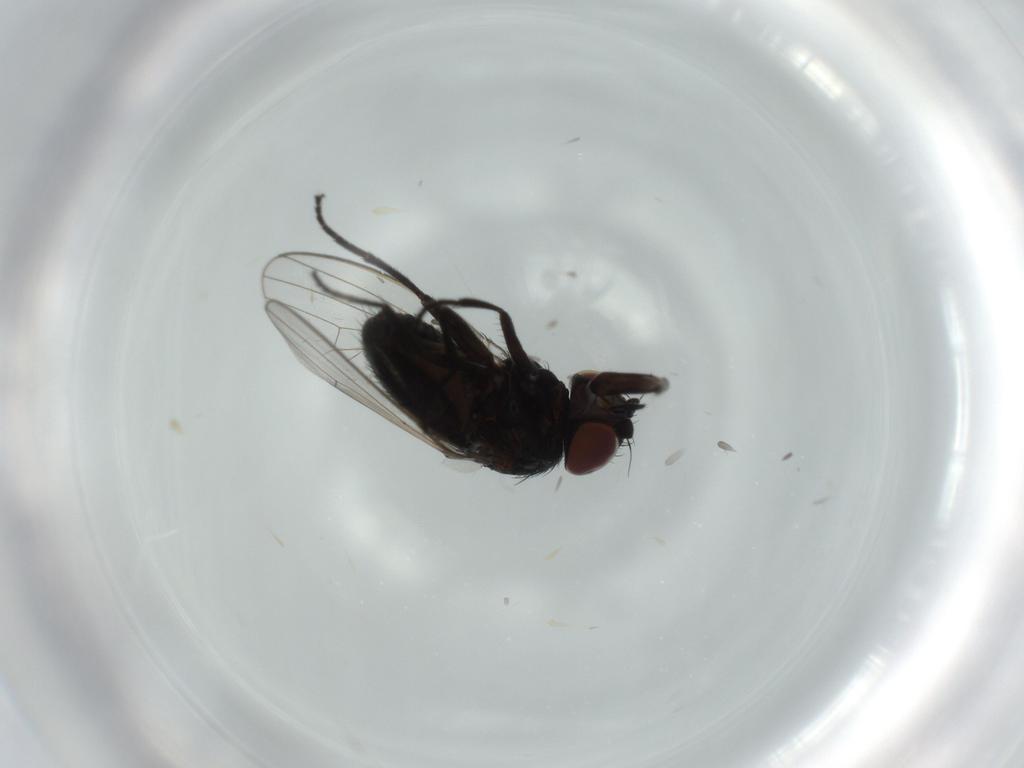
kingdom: Animalia
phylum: Arthropoda
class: Insecta
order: Diptera
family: Milichiidae
